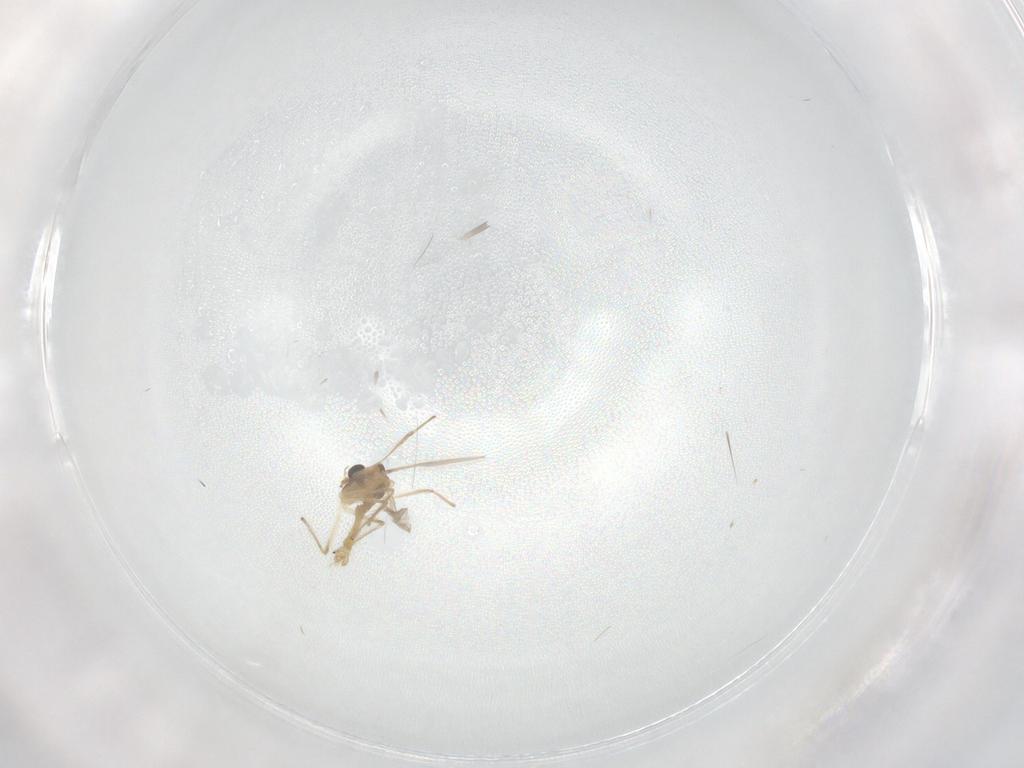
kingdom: Animalia
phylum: Arthropoda
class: Insecta
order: Diptera
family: Chironomidae
